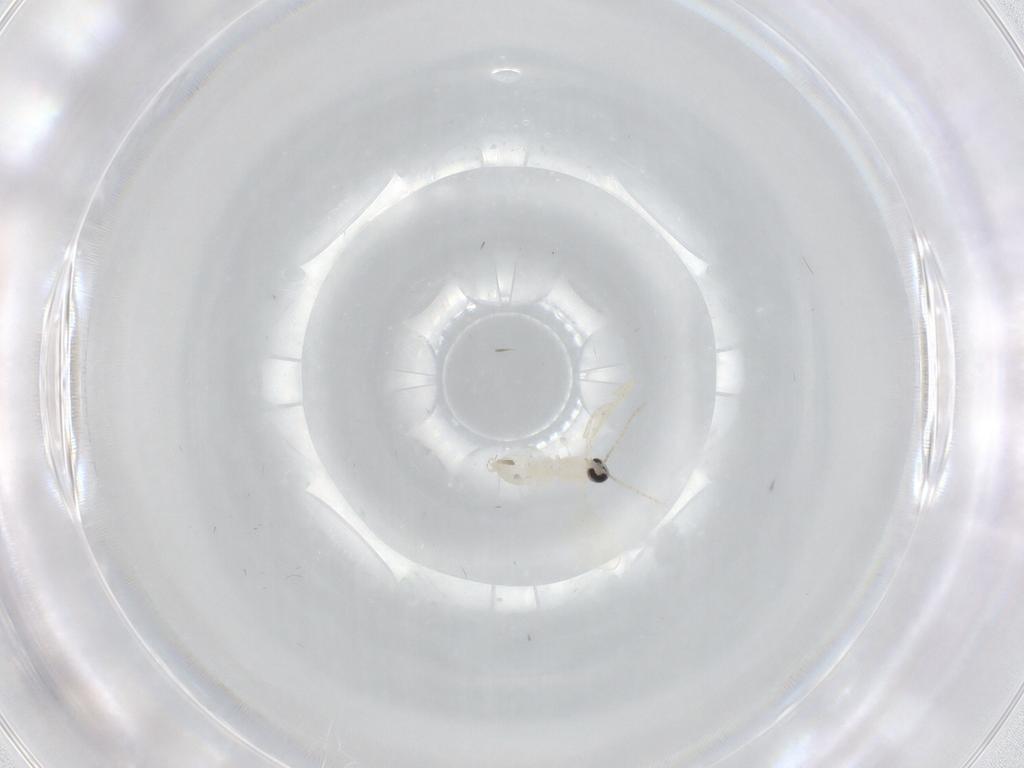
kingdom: Animalia
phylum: Arthropoda
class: Insecta
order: Diptera
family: Cecidomyiidae
